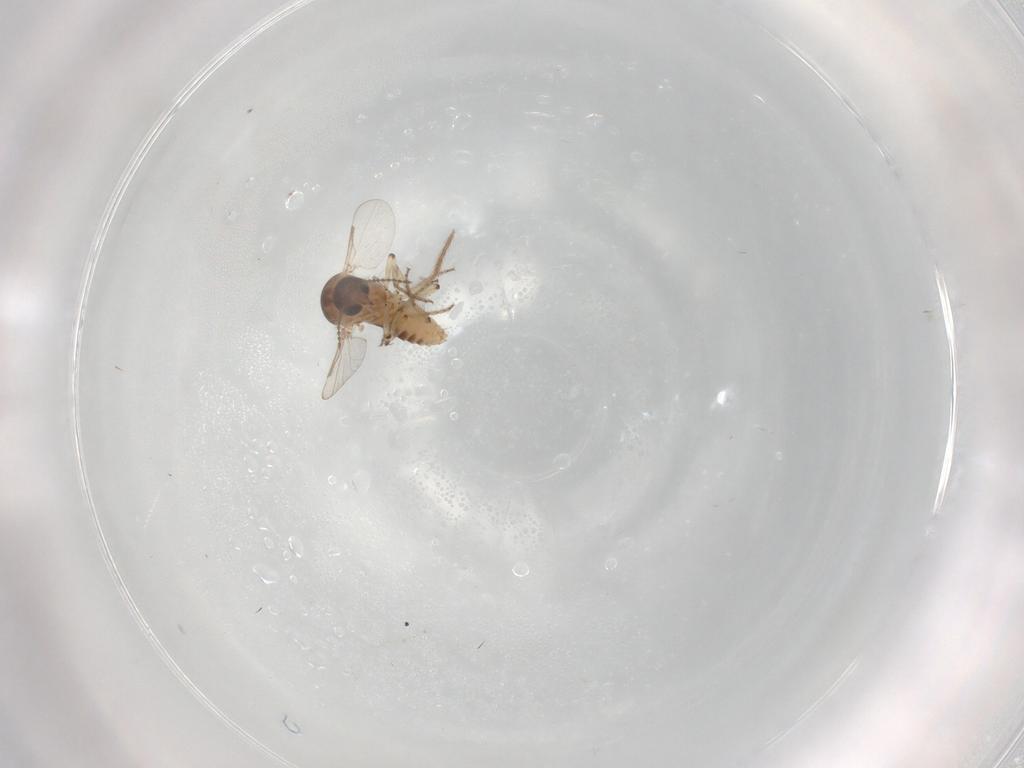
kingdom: Animalia
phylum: Arthropoda
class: Insecta
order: Diptera
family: Ceratopogonidae
